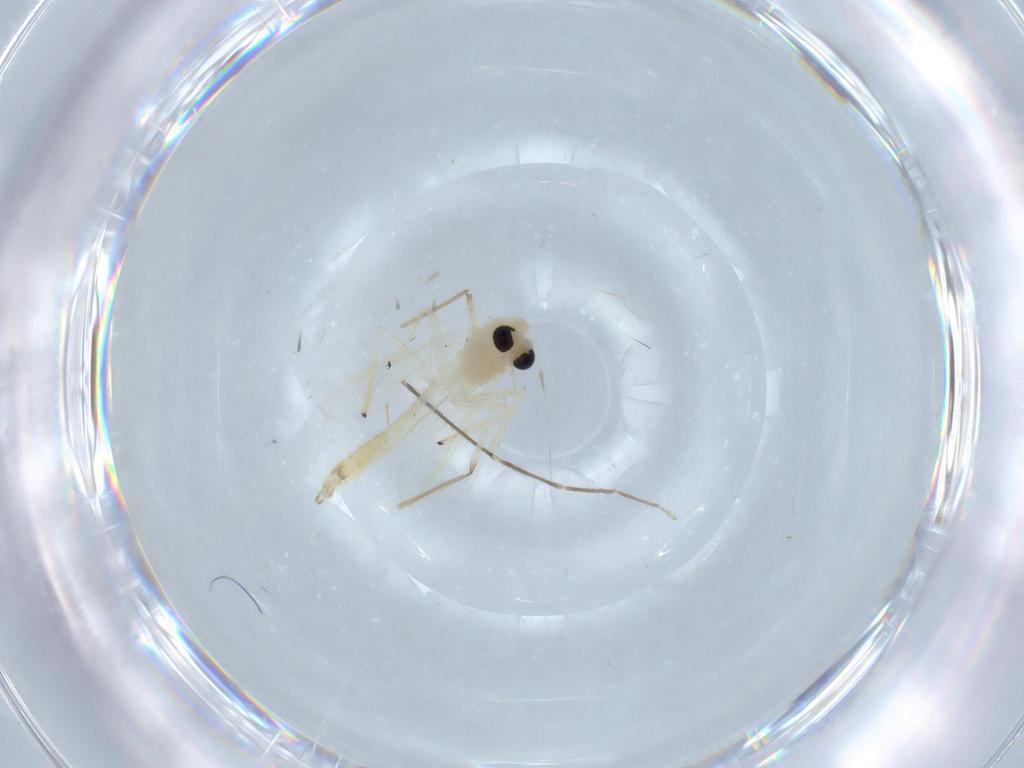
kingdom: Animalia
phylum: Arthropoda
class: Insecta
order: Diptera
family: Chironomidae
